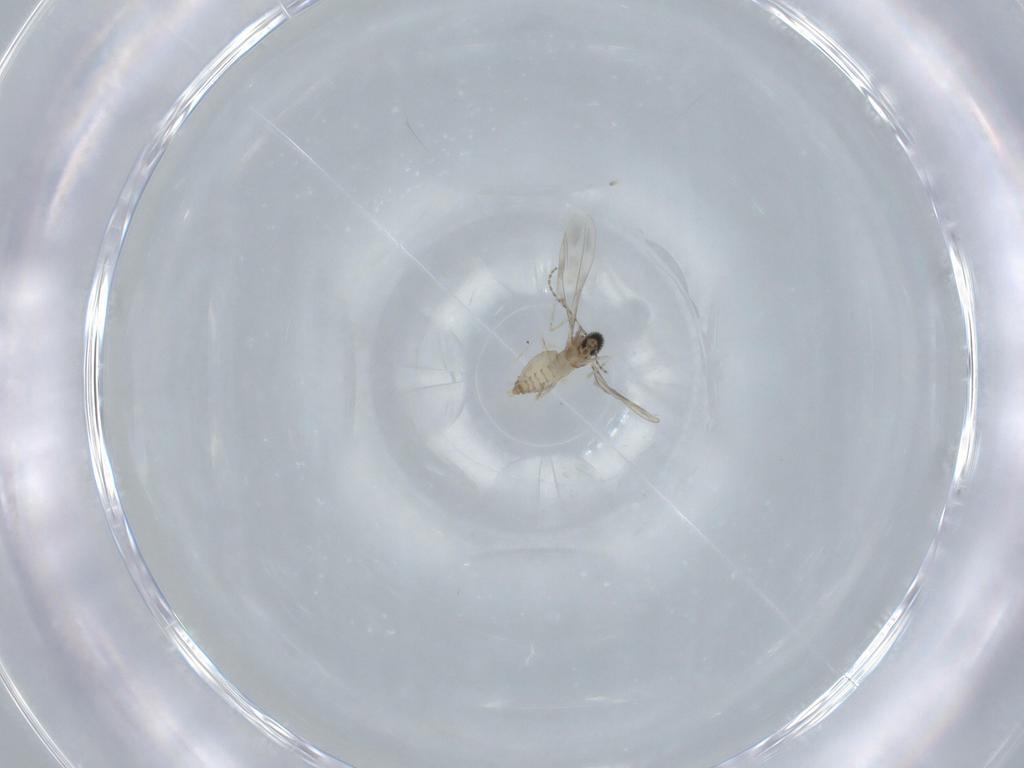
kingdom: Animalia
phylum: Arthropoda
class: Insecta
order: Diptera
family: Cecidomyiidae
